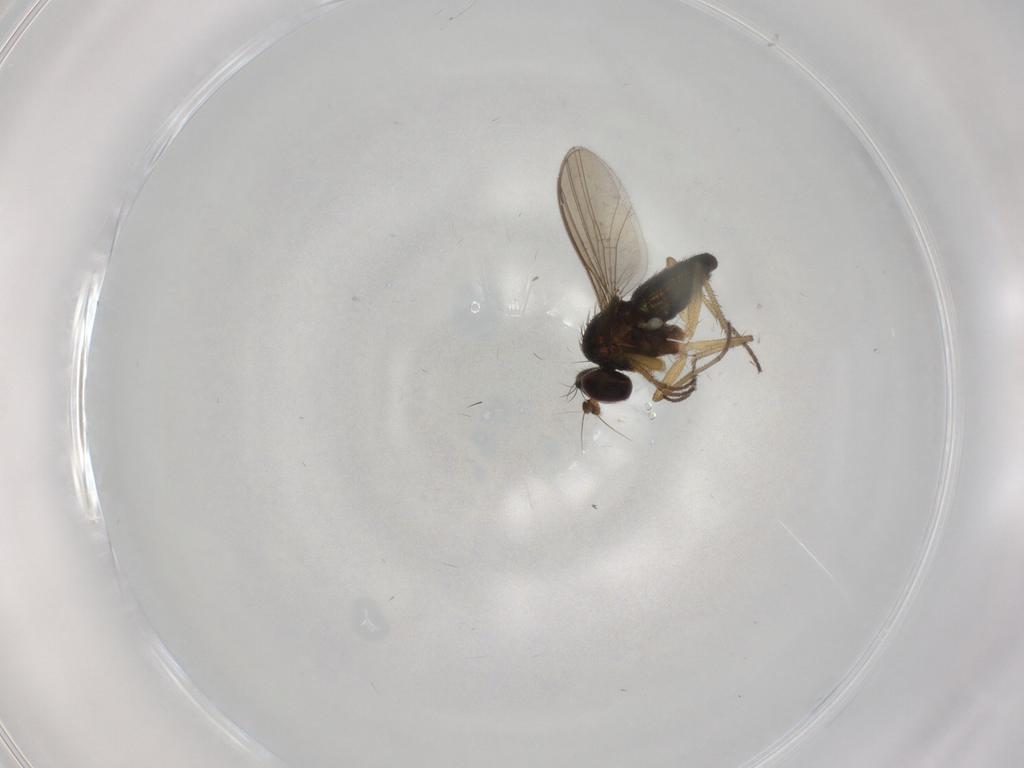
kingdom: Animalia
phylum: Arthropoda
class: Insecta
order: Diptera
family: Dolichopodidae
